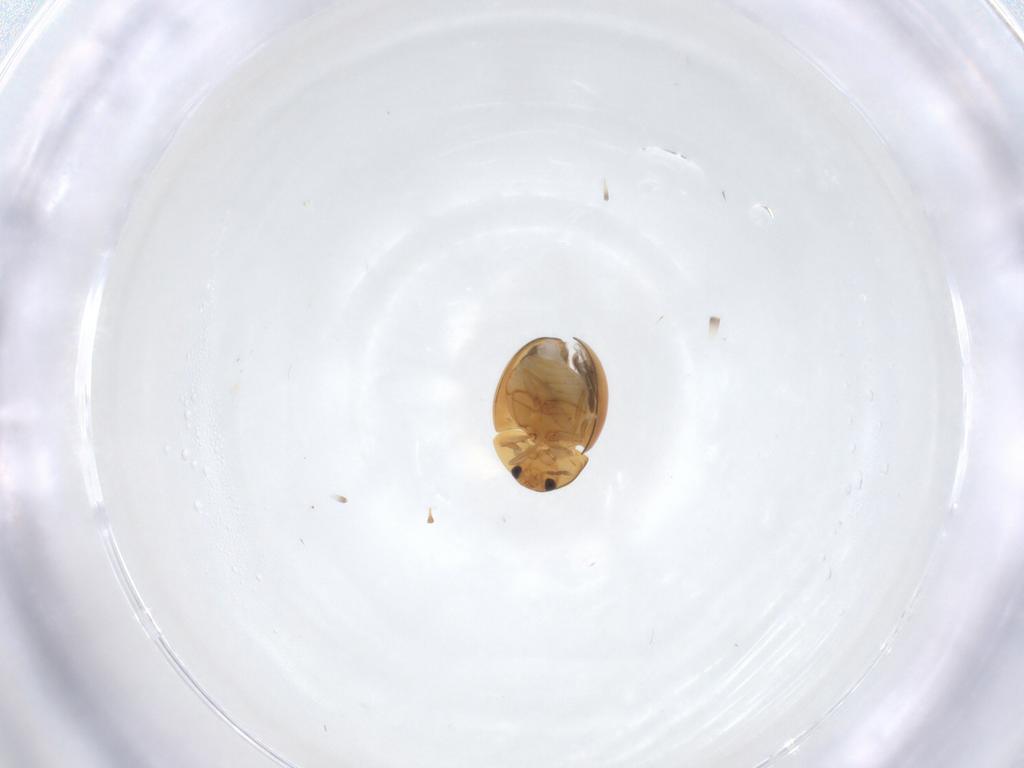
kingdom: Animalia
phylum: Arthropoda
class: Insecta
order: Coleoptera
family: Phalacridae
